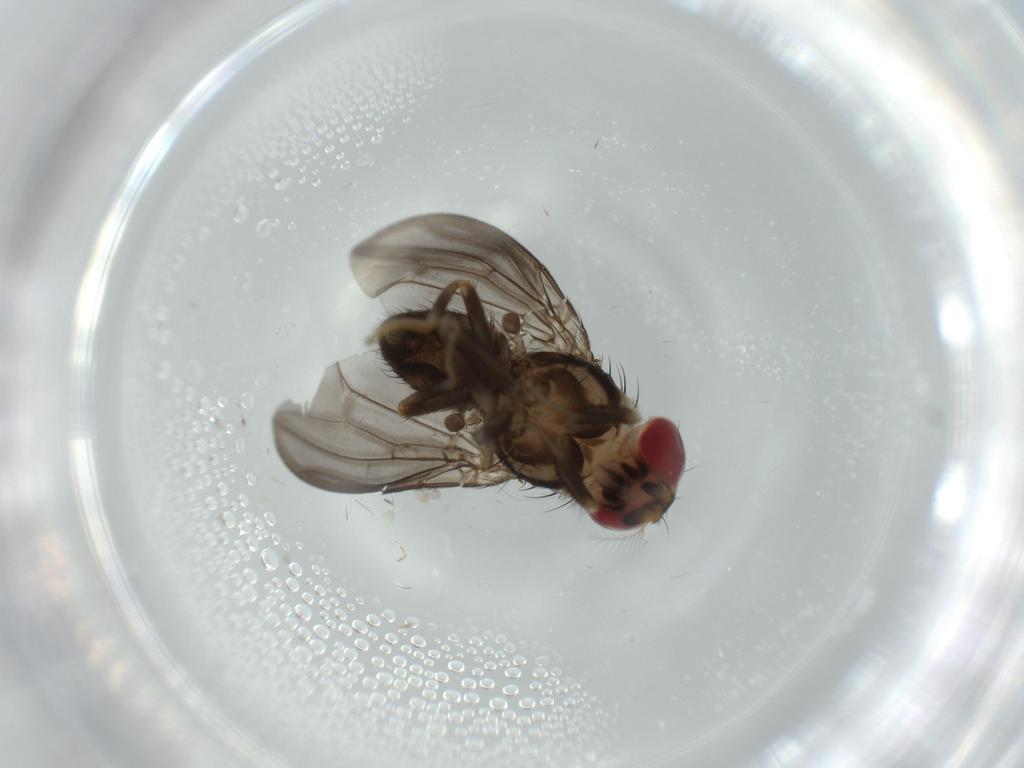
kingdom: Animalia
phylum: Arthropoda
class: Insecta
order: Diptera
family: Drosophilidae
